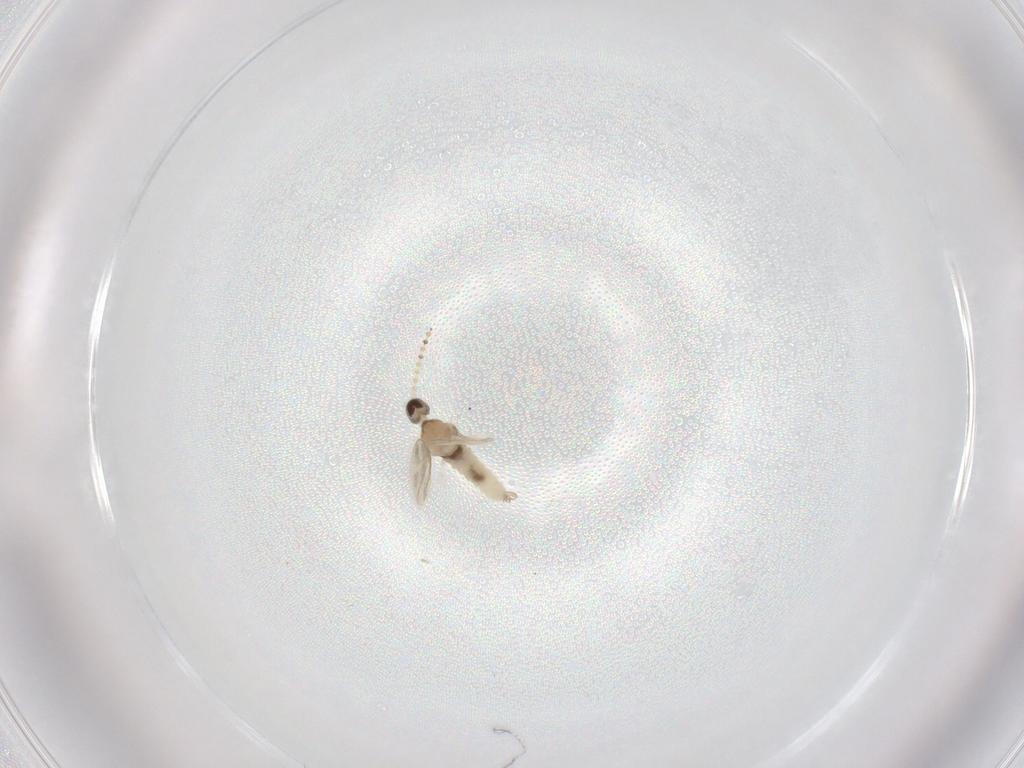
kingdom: Animalia
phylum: Arthropoda
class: Insecta
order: Diptera
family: Cecidomyiidae
